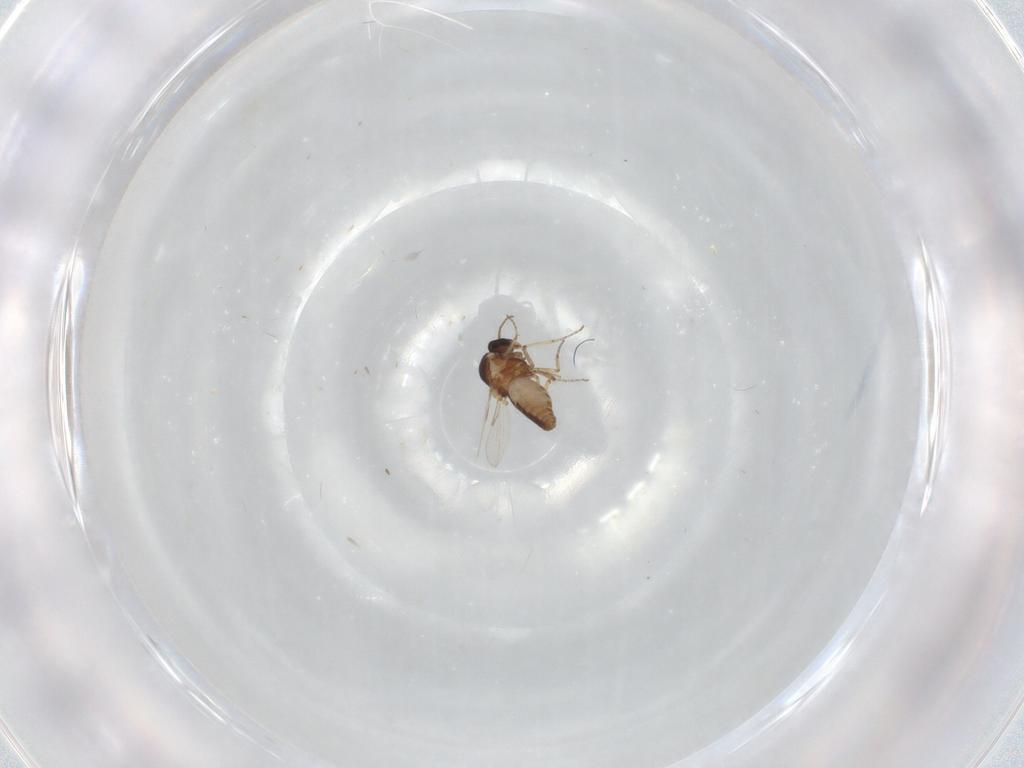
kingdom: Animalia
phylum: Arthropoda
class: Insecta
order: Diptera
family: Ceratopogonidae
